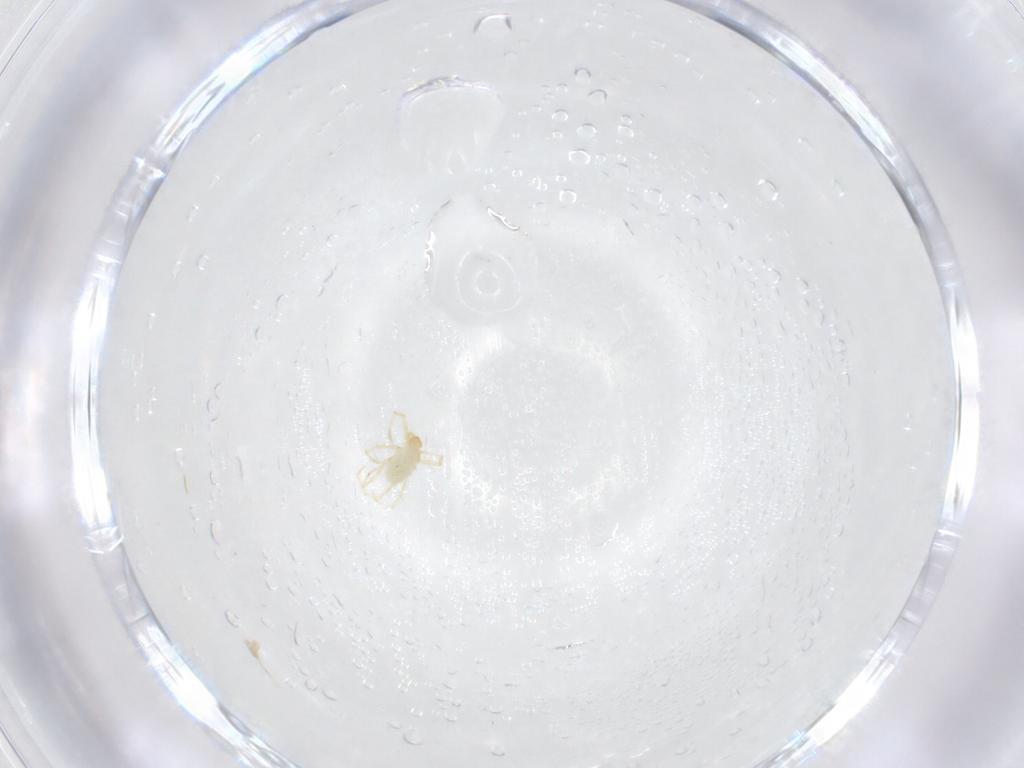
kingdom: Animalia
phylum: Arthropoda
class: Arachnida
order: Trombidiformes
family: Erythraeidae
